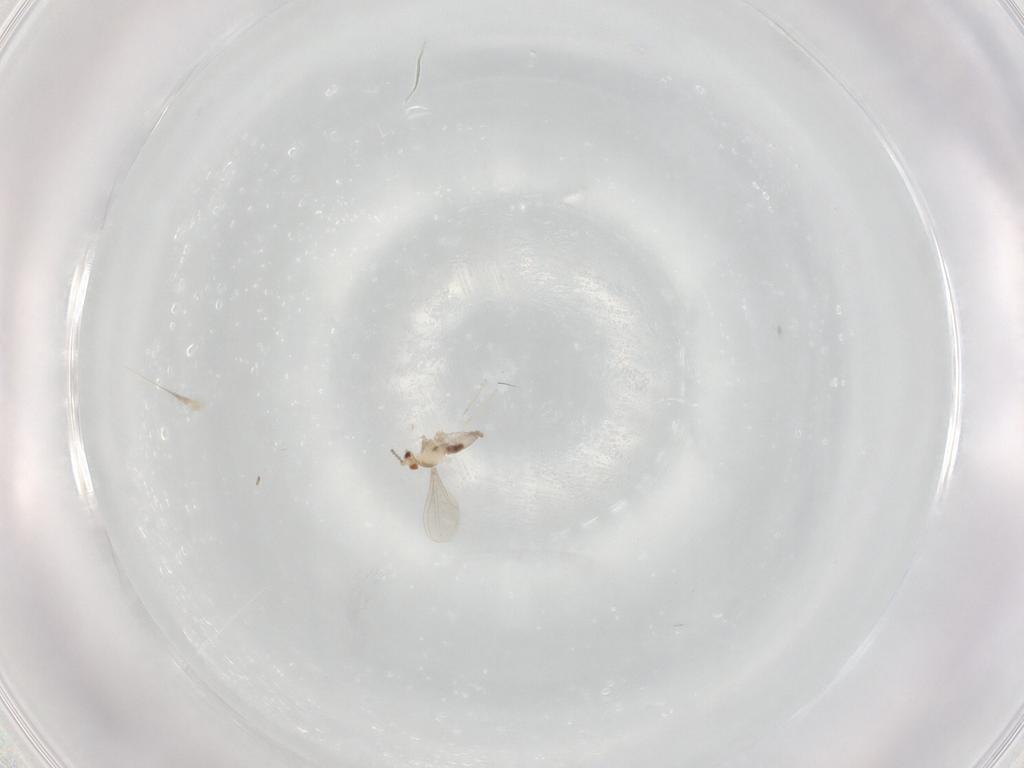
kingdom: Animalia
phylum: Arthropoda
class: Insecta
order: Diptera
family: Cecidomyiidae
